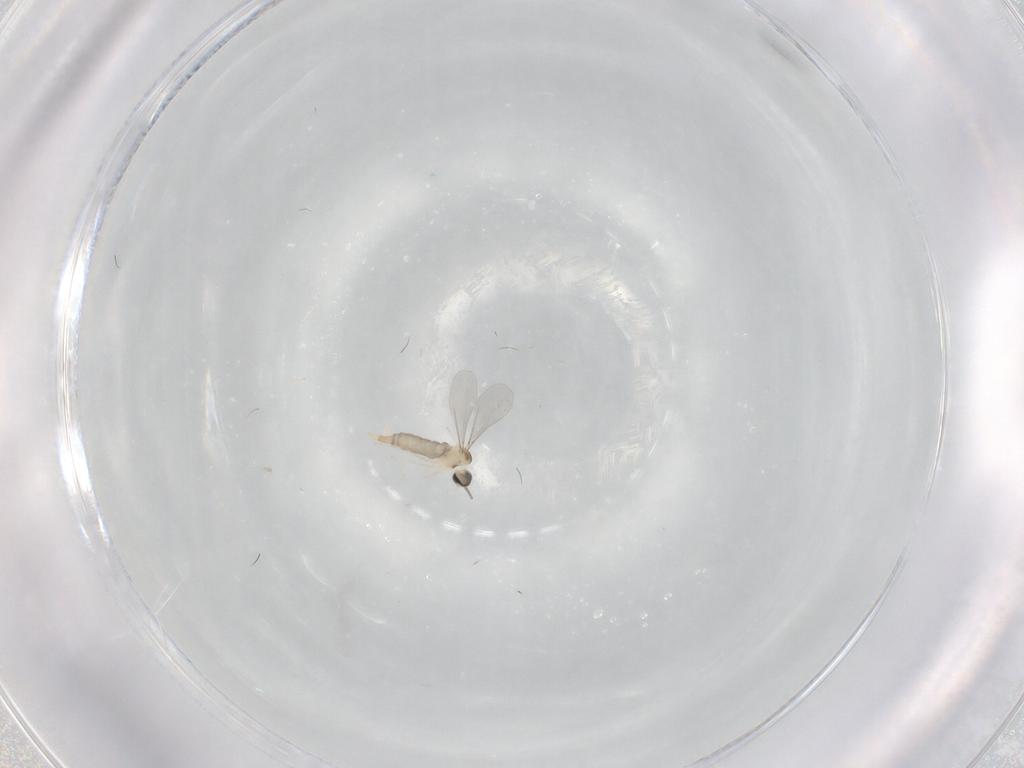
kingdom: Animalia
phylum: Arthropoda
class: Insecta
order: Diptera
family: Cecidomyiidae
